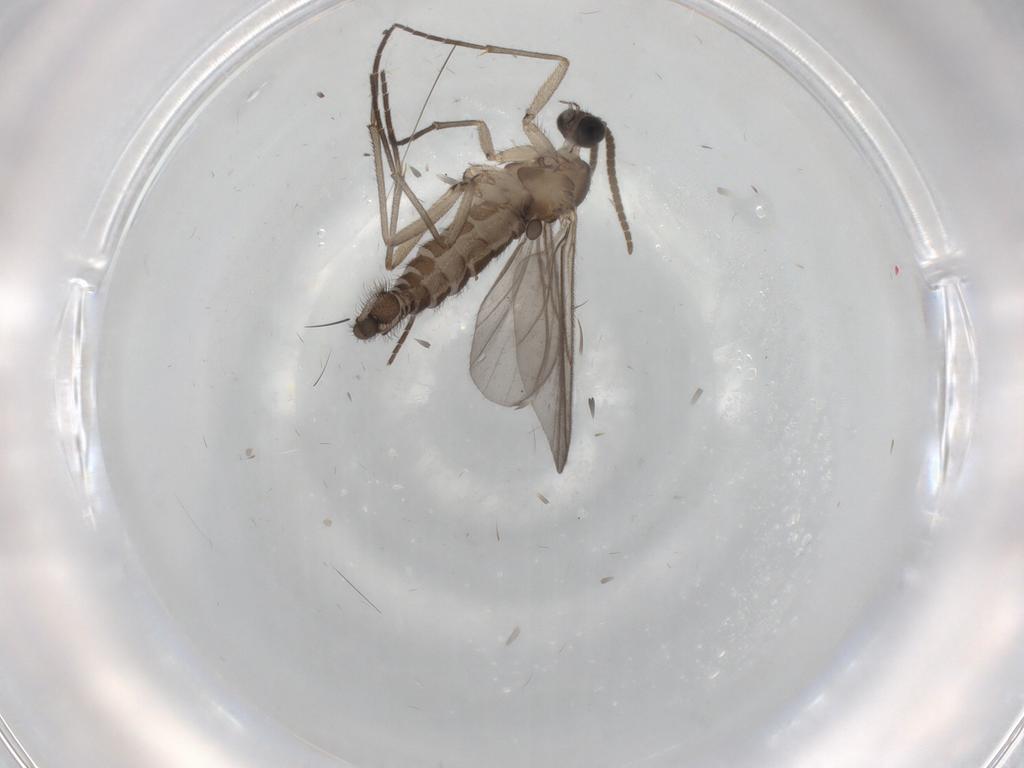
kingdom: Animalia
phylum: Arthropoda
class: Insecta
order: Diptera
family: Sciaridae
